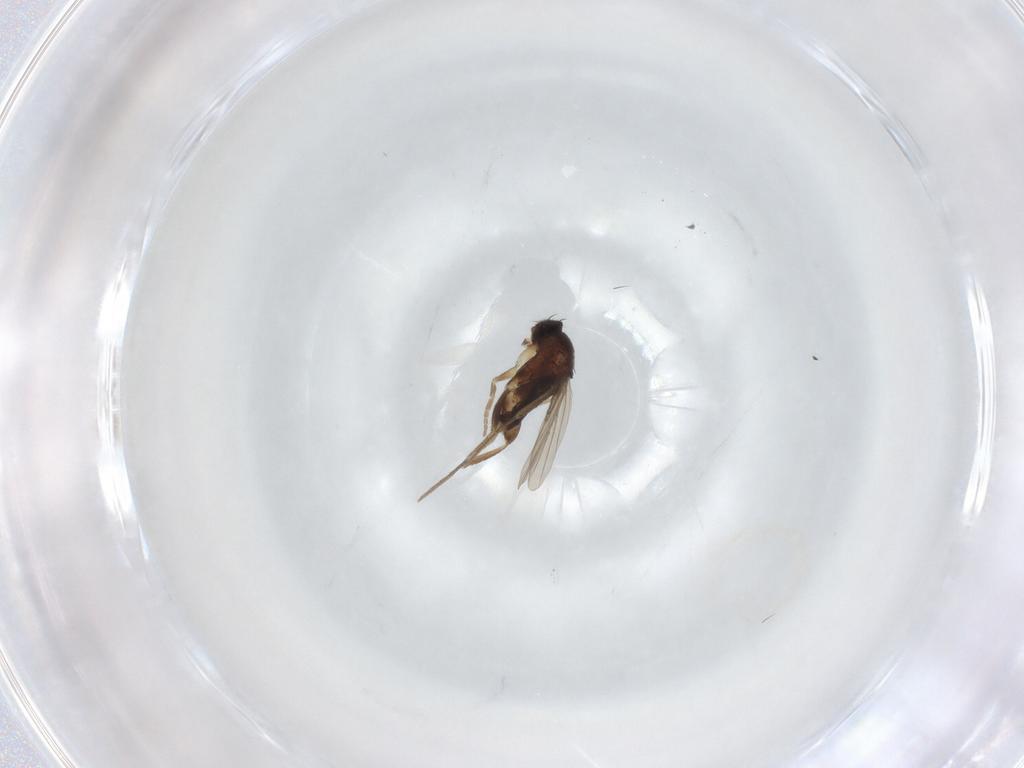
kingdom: Animalia
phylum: Arthropoda
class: Insecta
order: Diptera
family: Phoridae
